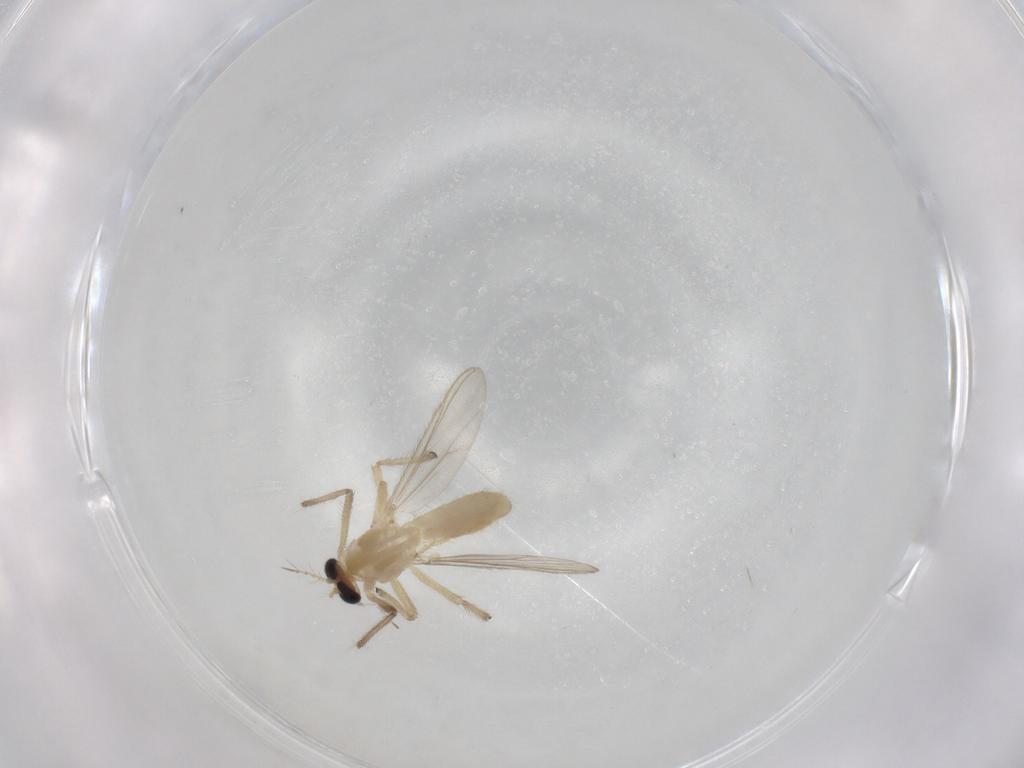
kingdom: Animalia
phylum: Arthropoda
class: Insecta
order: Diptera
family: Chironomidae
